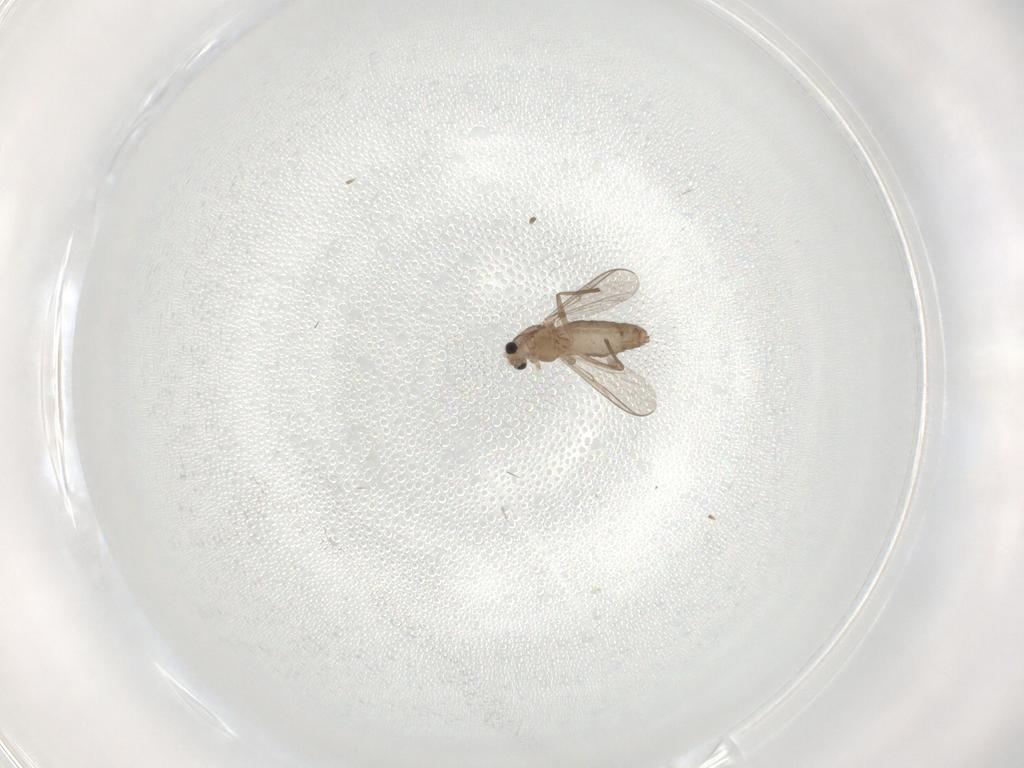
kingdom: Animalia
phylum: Arthropoda
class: Insecta
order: Diptera
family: Chironomidae
